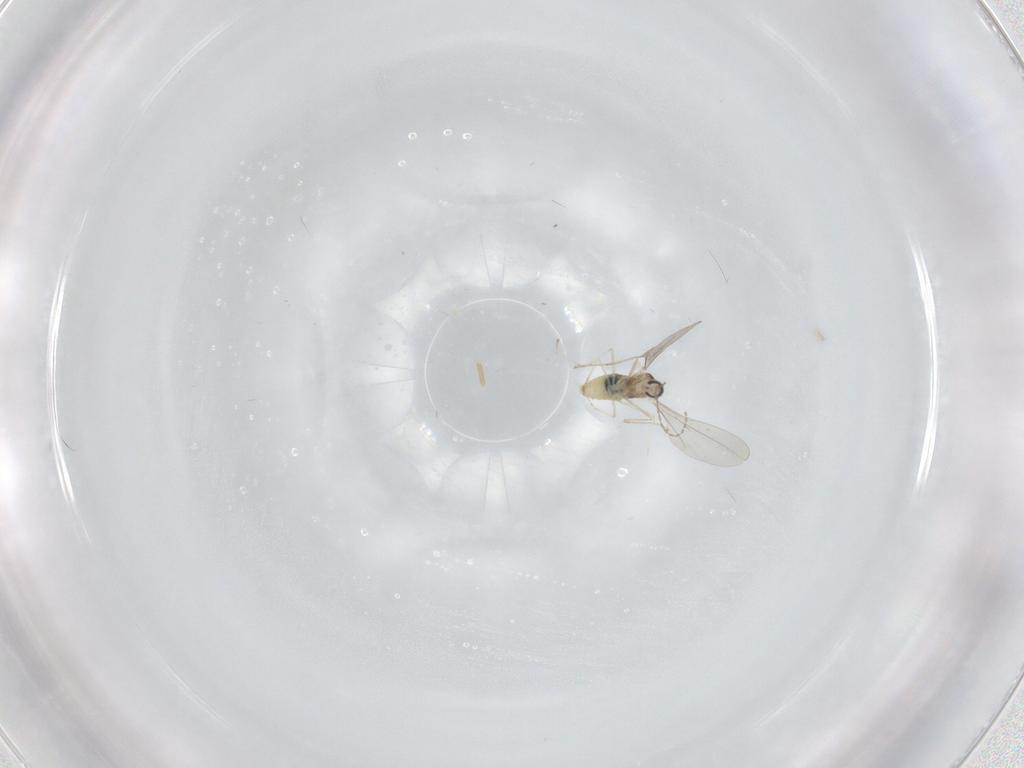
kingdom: Animalia
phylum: Arthropoda
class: Insecta
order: Diptera
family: Cecidomyiidae
